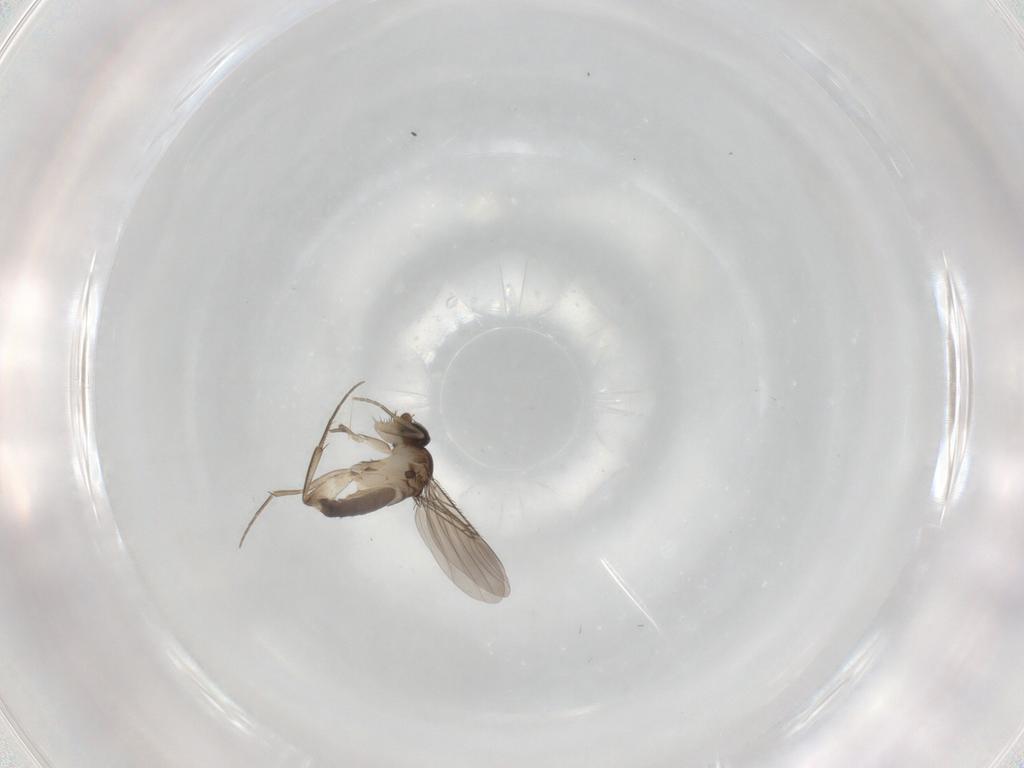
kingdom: Animalia
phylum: Arthropoda
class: Insecta
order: Diptera
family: Phoridae
